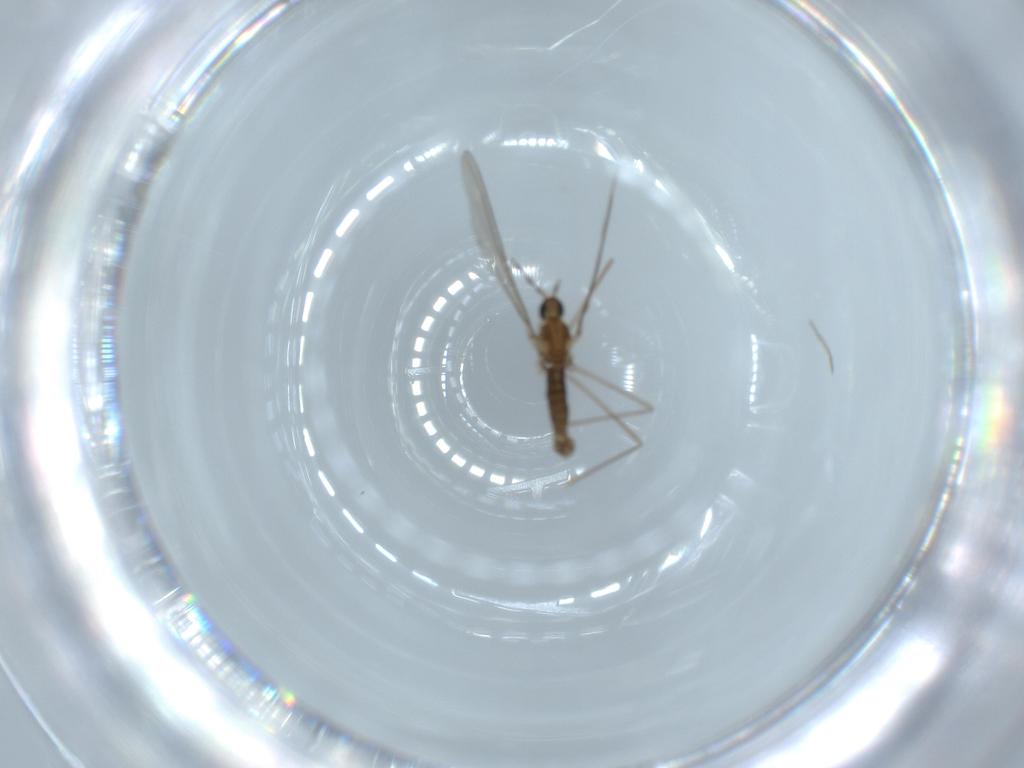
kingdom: Animalia
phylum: Arthropoda
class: Insecta
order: Diptera
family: Cecidomyiidae
